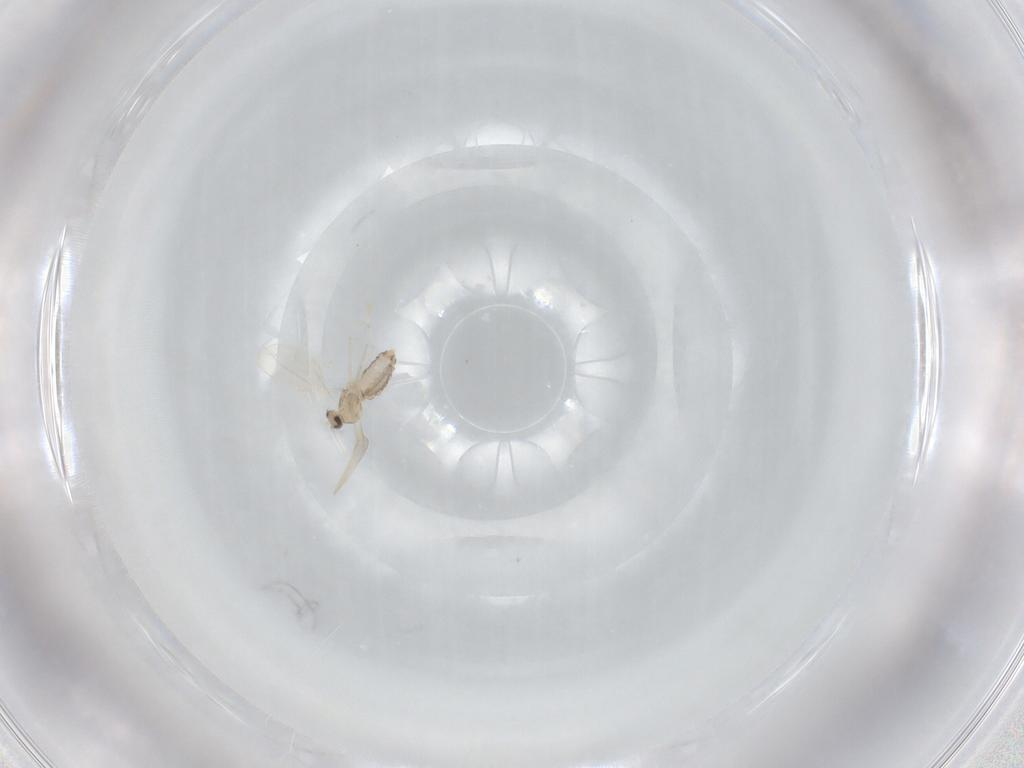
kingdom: Animalia
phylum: Arthropoda
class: Insecta
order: Diptera
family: Cecidomyiidae
